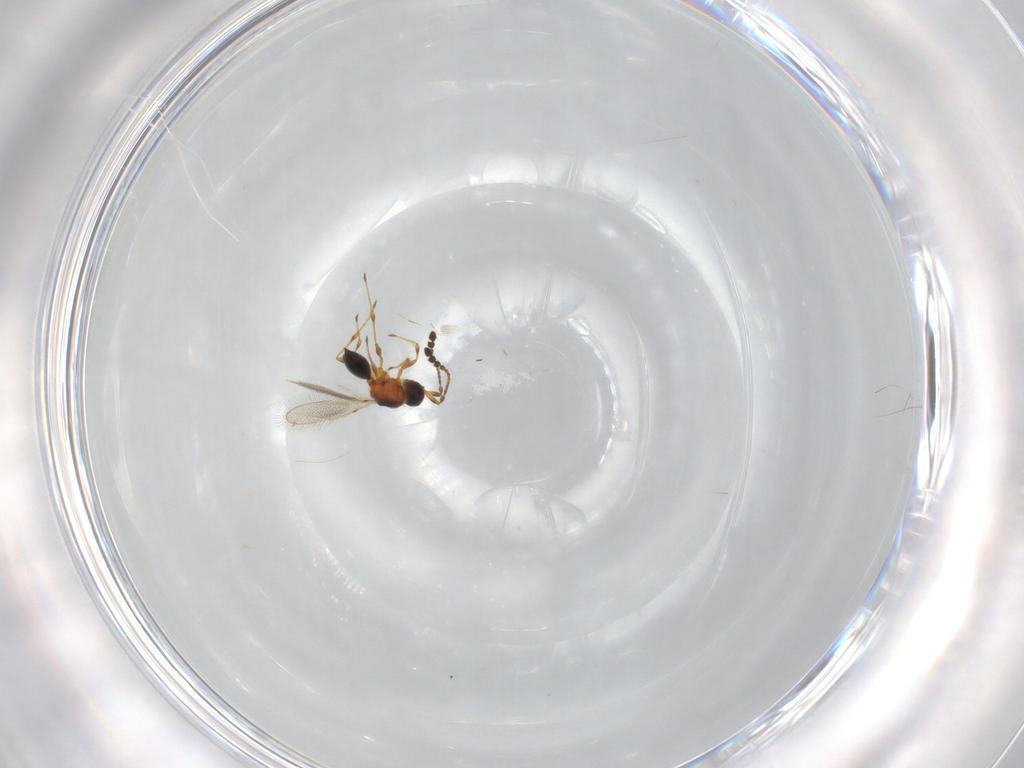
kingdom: Animalia
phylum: Arthropoda
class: Insecta
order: Hymenoptera
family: Diapriidae
